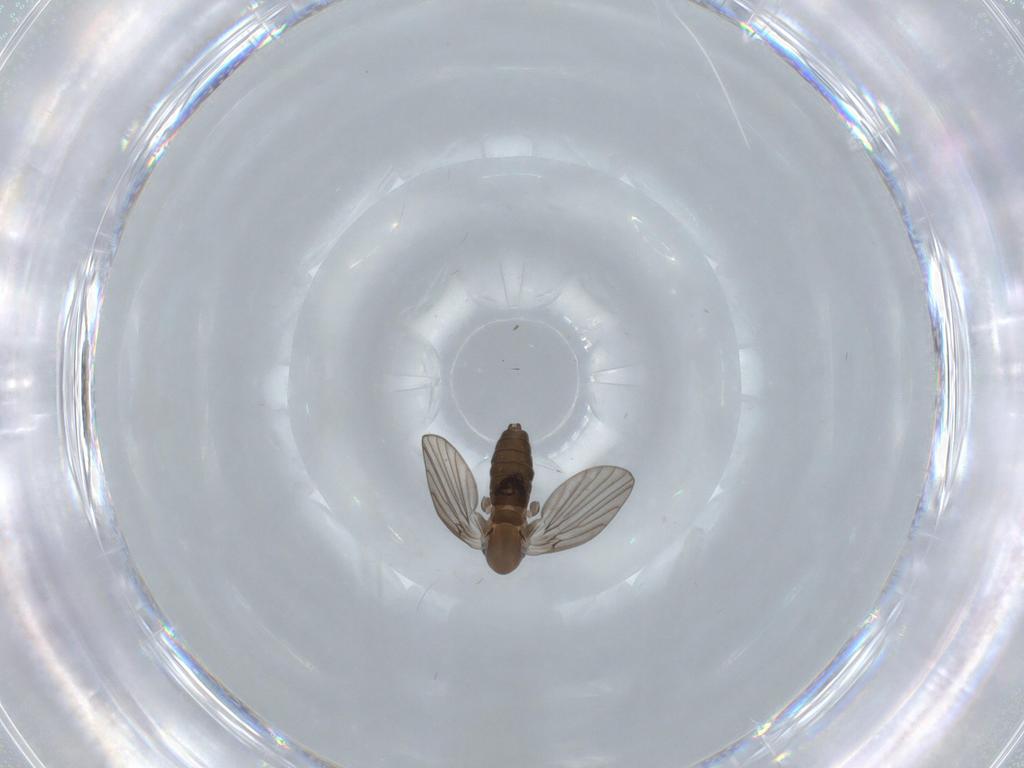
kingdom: Animalia
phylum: Arthropoda
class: Insecta
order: Diptera
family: Psychodidae
